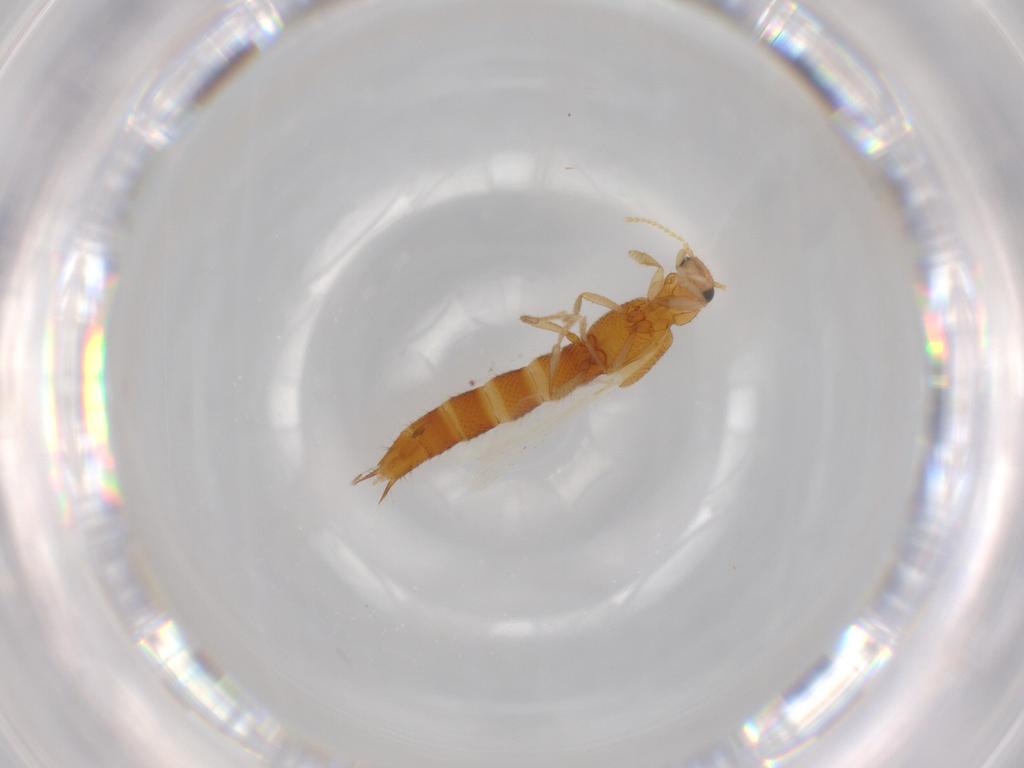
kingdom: Animalia
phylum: Arthropoda
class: Insecta
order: Coleoptera
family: Staphylinidae
